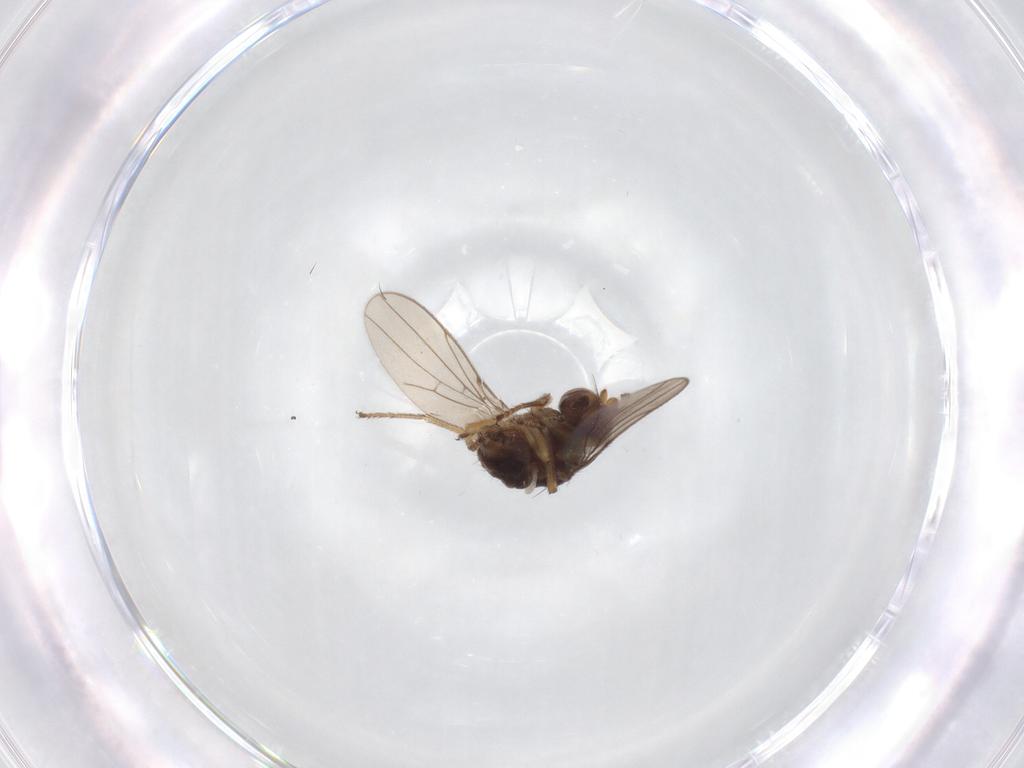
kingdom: Animalia
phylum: Arthropoda
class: Insecta
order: Diptera
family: Ephydridae
